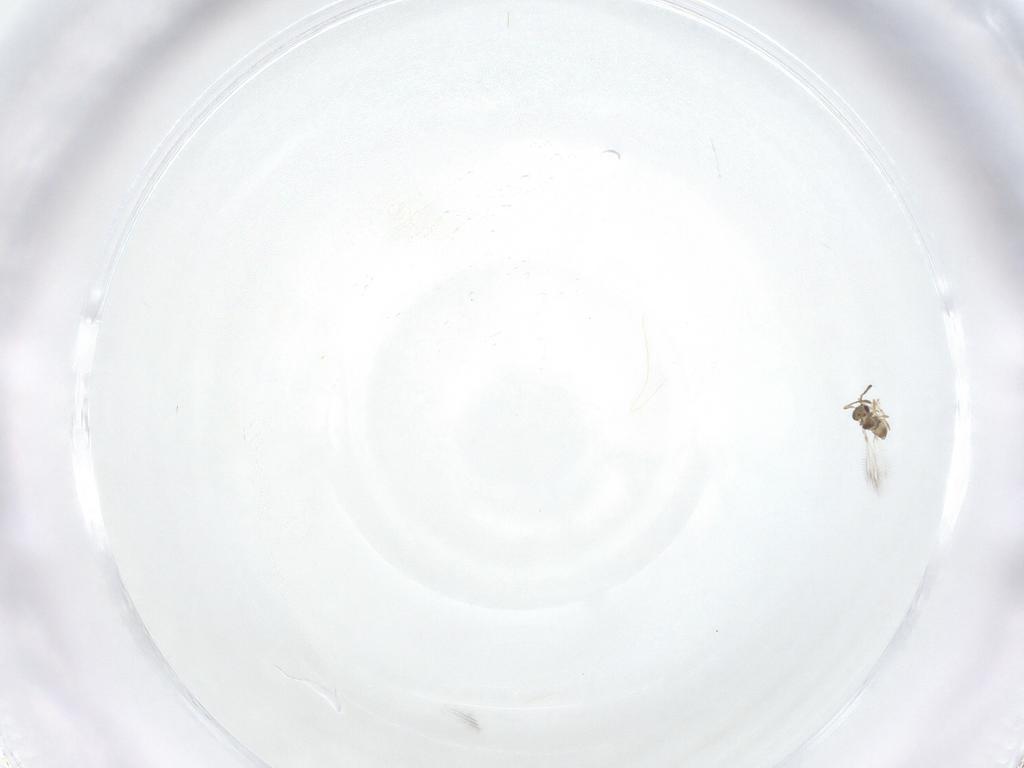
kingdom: Animalia
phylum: Arthropoda
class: Insecta
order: Hymenoptera
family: Mymaridae
